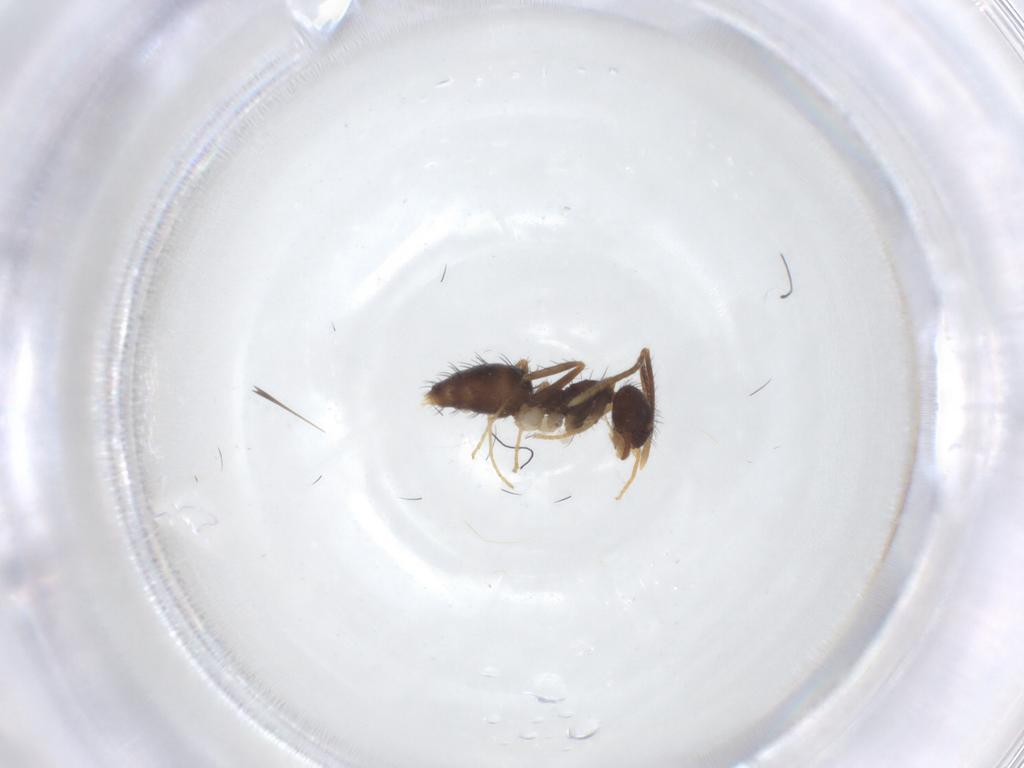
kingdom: Animalia
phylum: Arthropoda
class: Insecta
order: Hymenoptera
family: Formicidae
